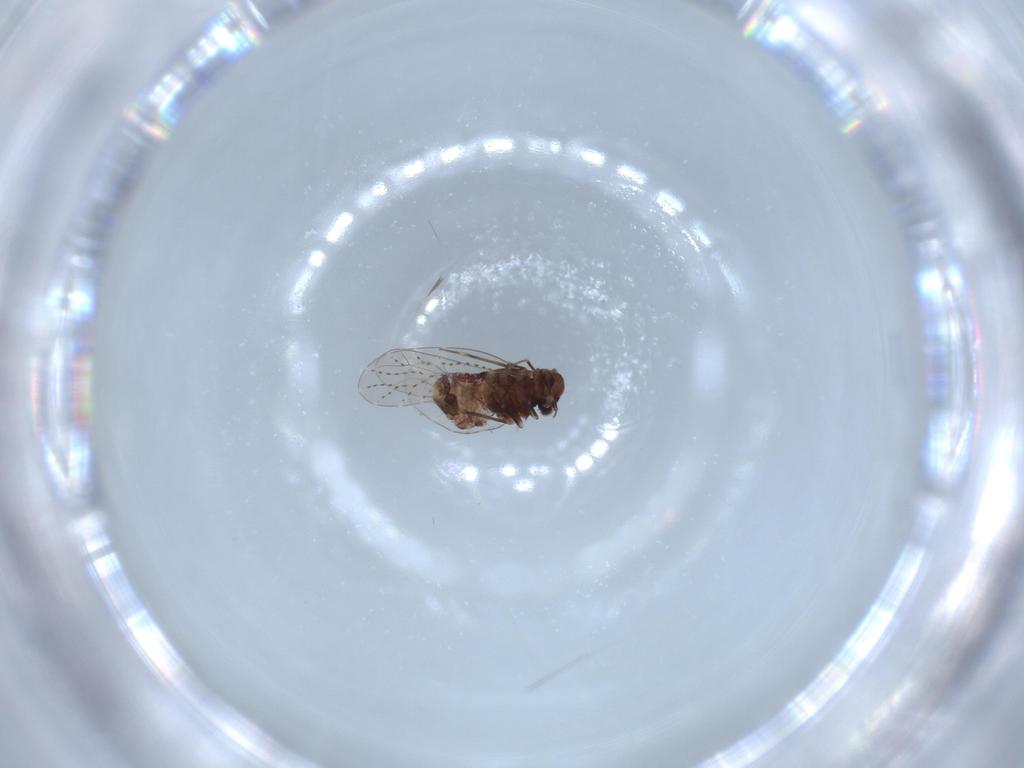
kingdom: Animalia
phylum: Arthropoda
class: Insecta
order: Psocodea
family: Musapsocidae
